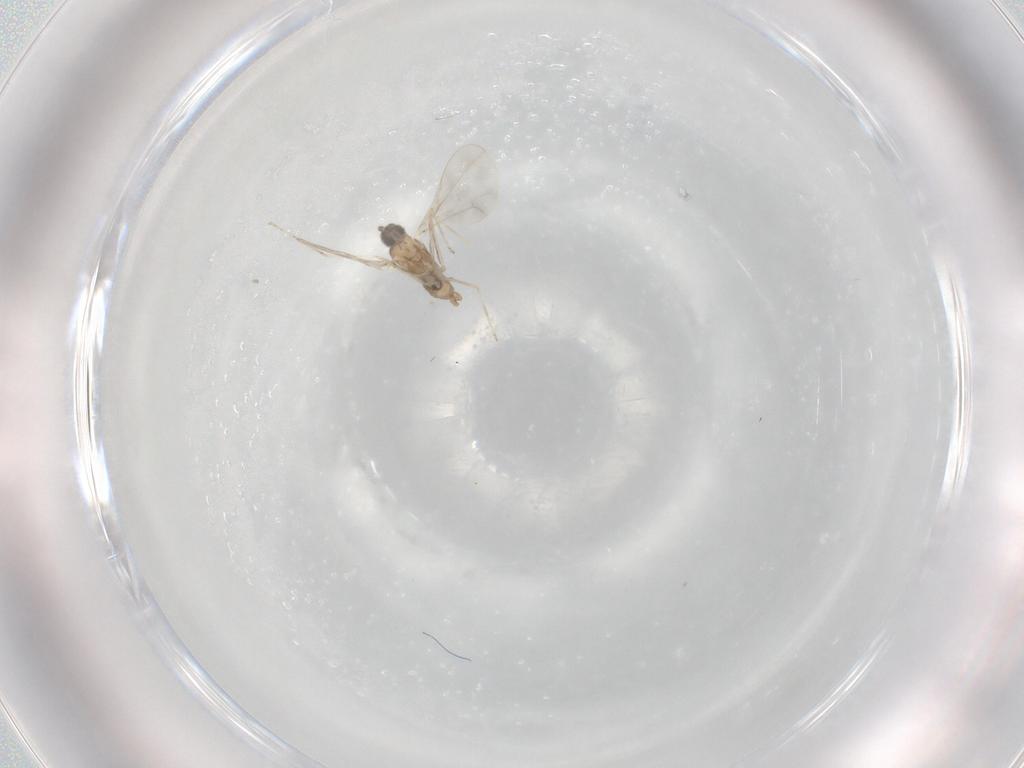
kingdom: Animalia
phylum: Arthropoda
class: Insecta
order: Diptera
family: Cecidomyiidae
